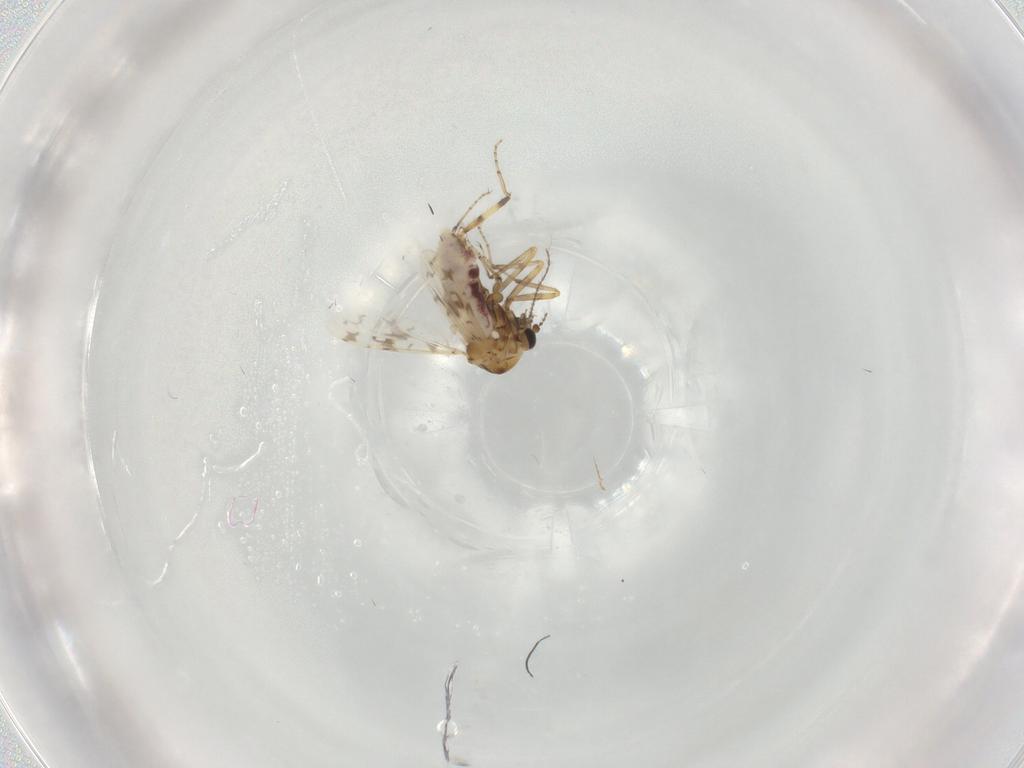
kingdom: Animalia
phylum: Arthropoda
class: Insecta
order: Diptera
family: Ceratopogonidae
